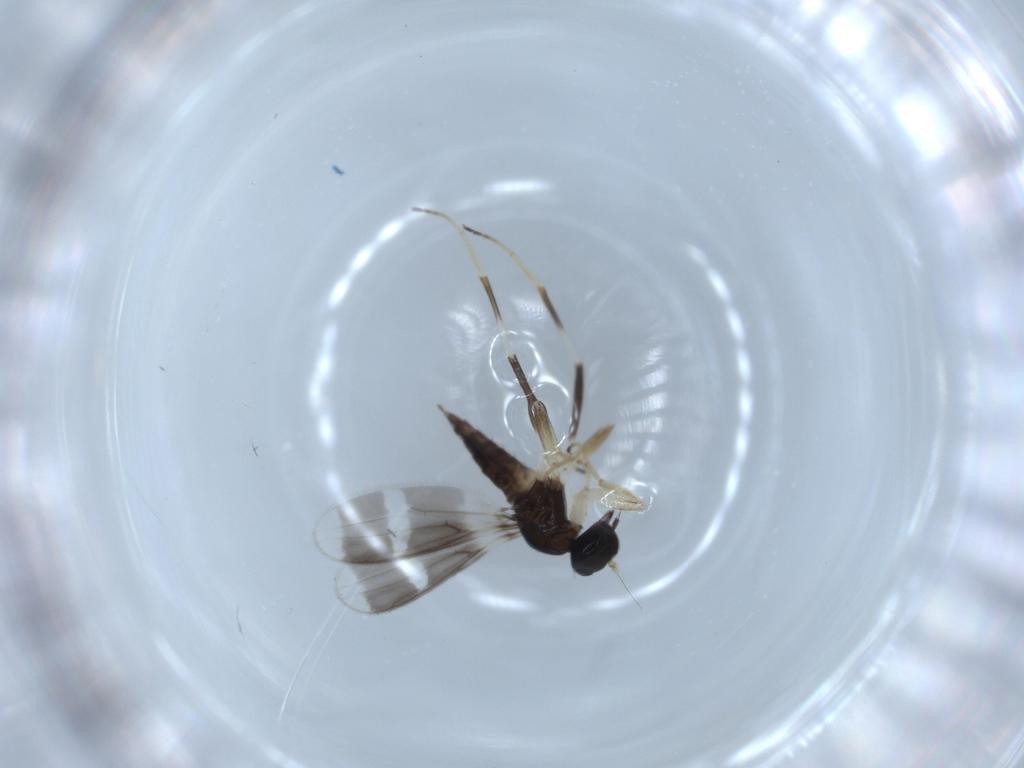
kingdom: Animalia
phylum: Arthropoda
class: Insecta
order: Diptera
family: Hybotidae
